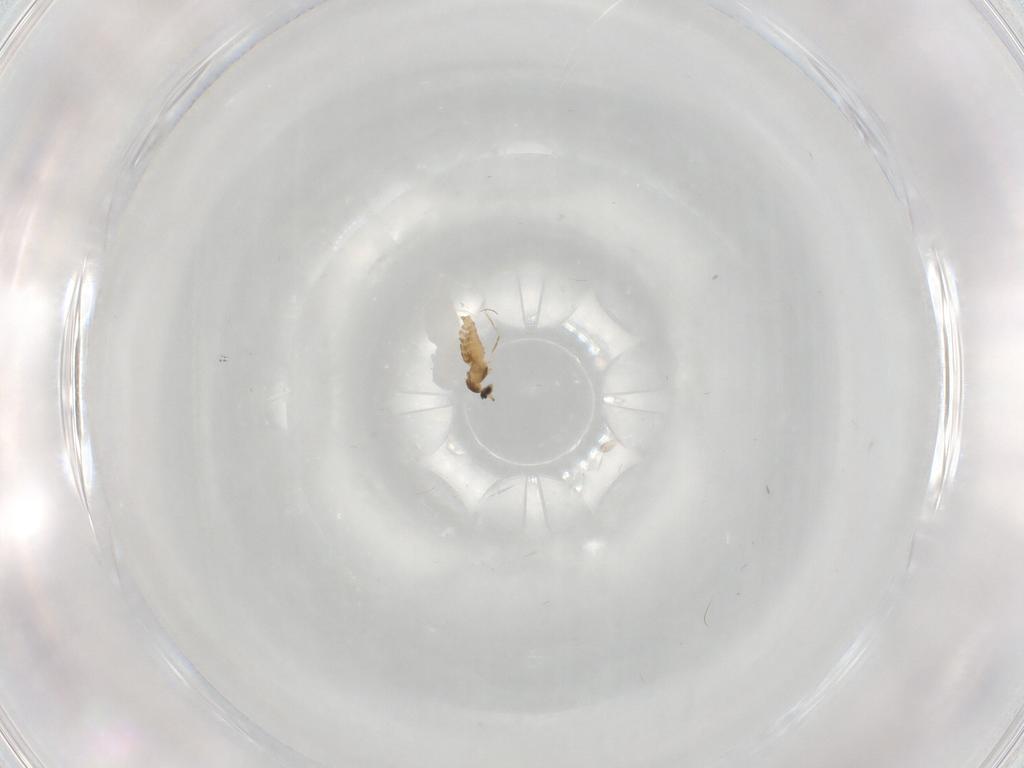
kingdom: Animalia
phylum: Arthropoda
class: Insecta
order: Diptera
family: Cecidomyiidae
